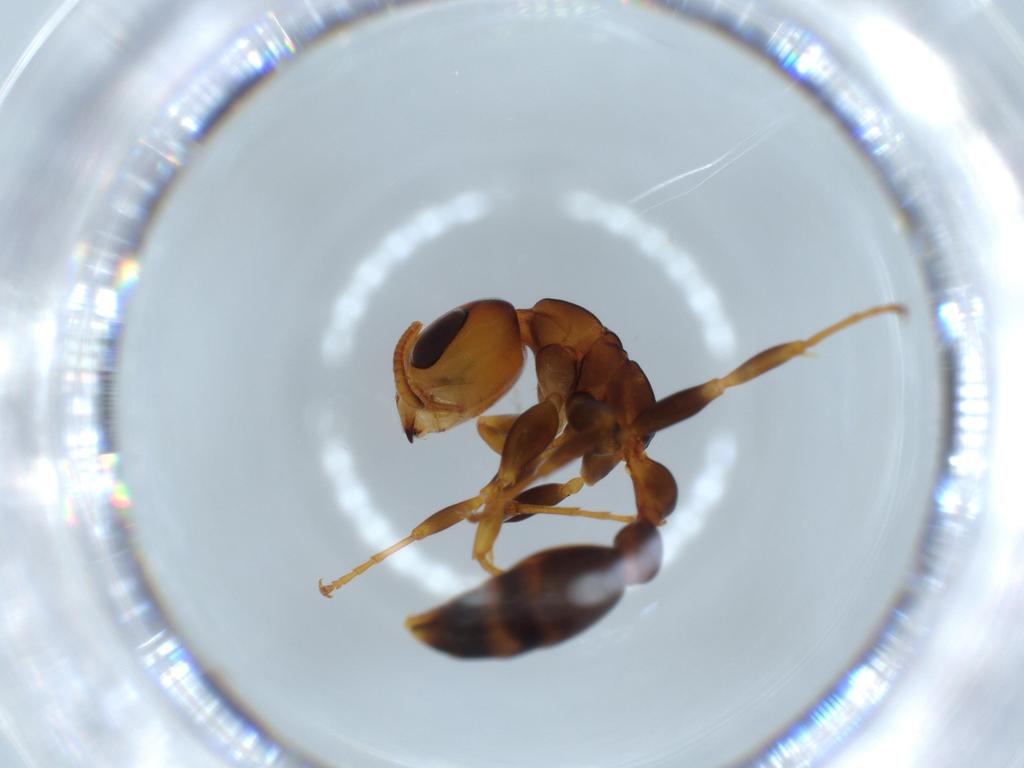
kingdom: Animalia
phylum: Arthropoda
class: Insecta
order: Hymenoptera
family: Formicidae
